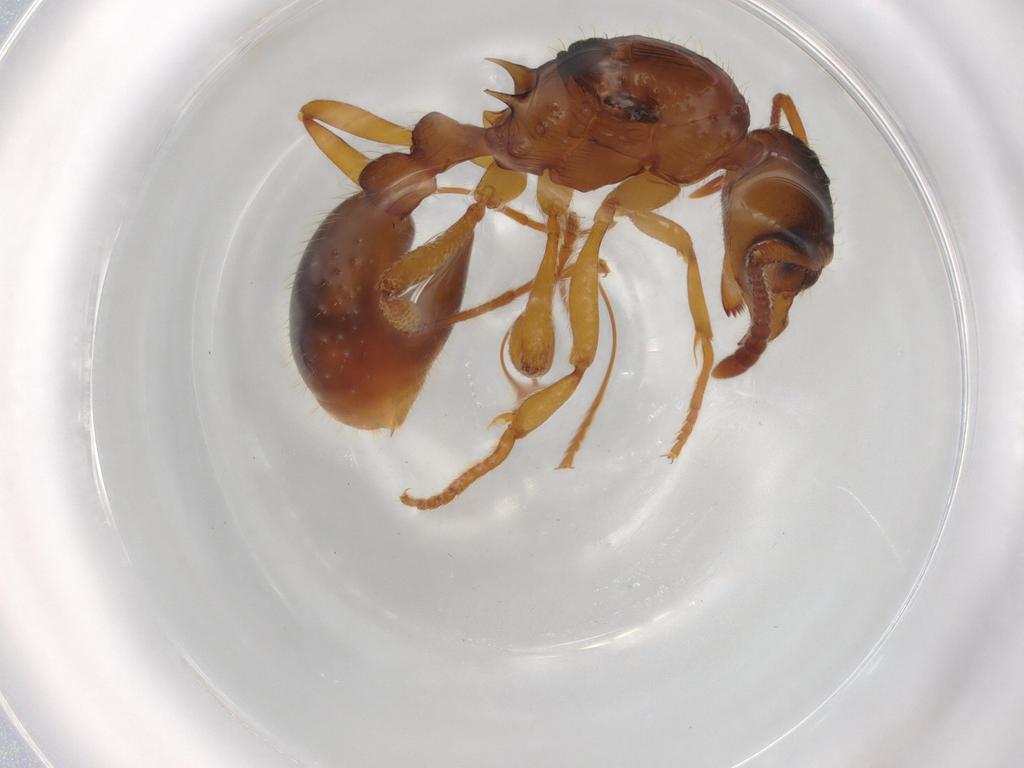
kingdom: Animalia
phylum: Arthropoda
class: Insecta
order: Hymenoptera
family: Formicidae
